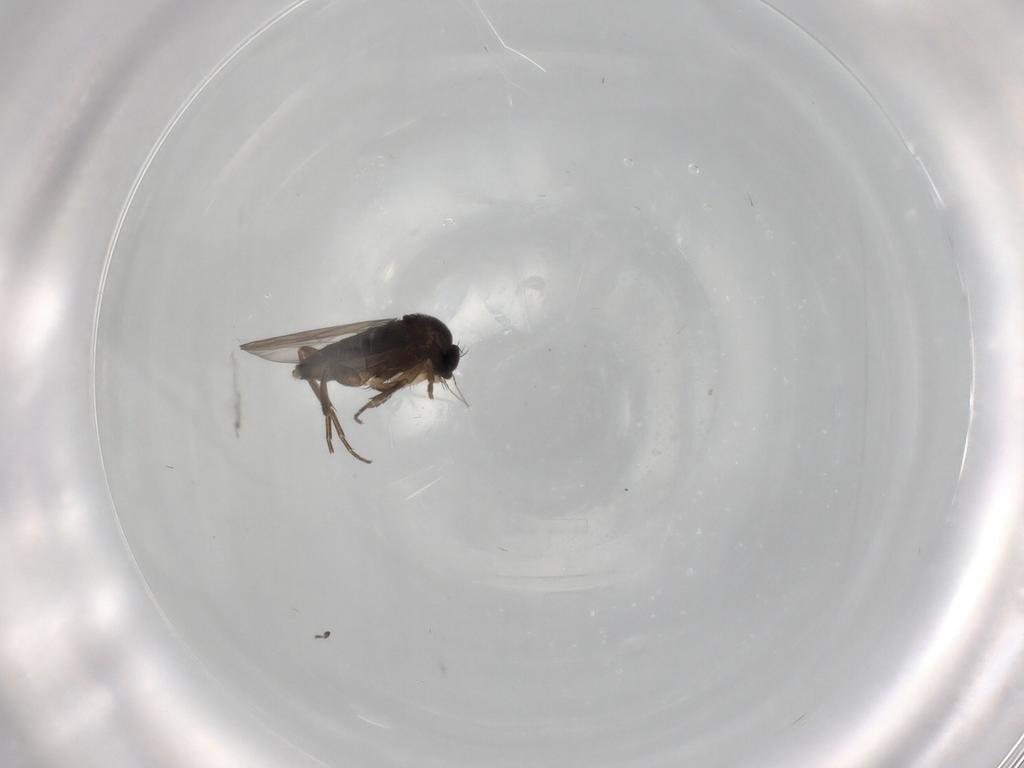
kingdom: Animalia
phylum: Arthropoda
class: Insecta
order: Diptera
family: Phoridae
